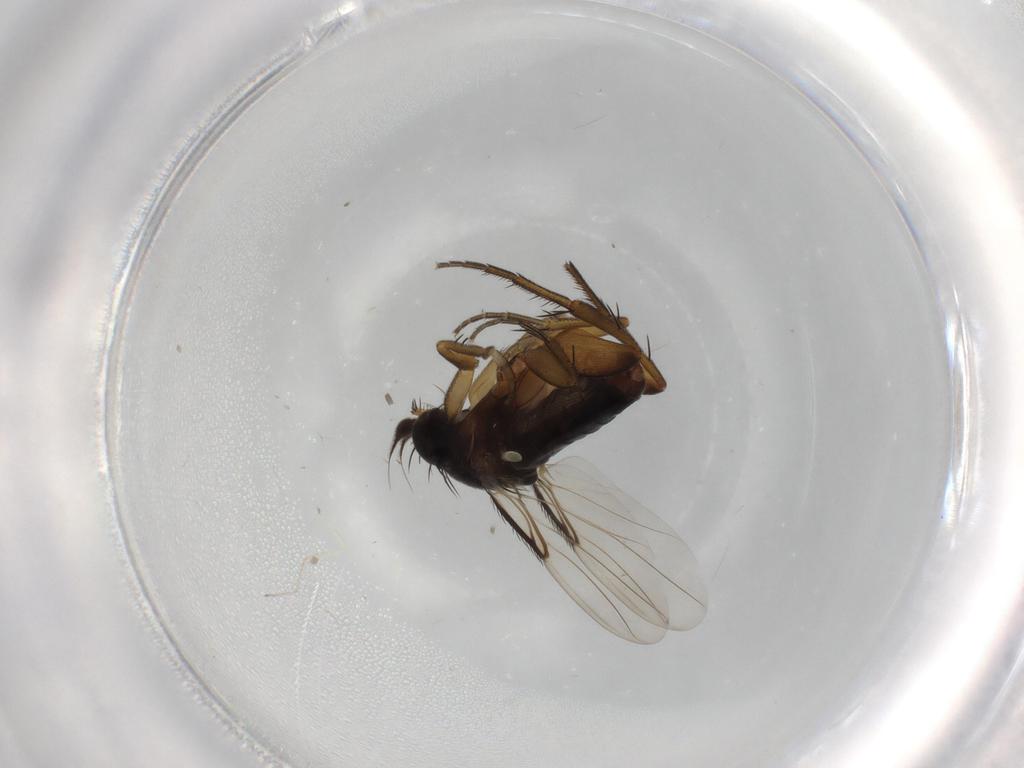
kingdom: Animalia
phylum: Arthropoda
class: Insecta
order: Diptera
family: Phoridae
